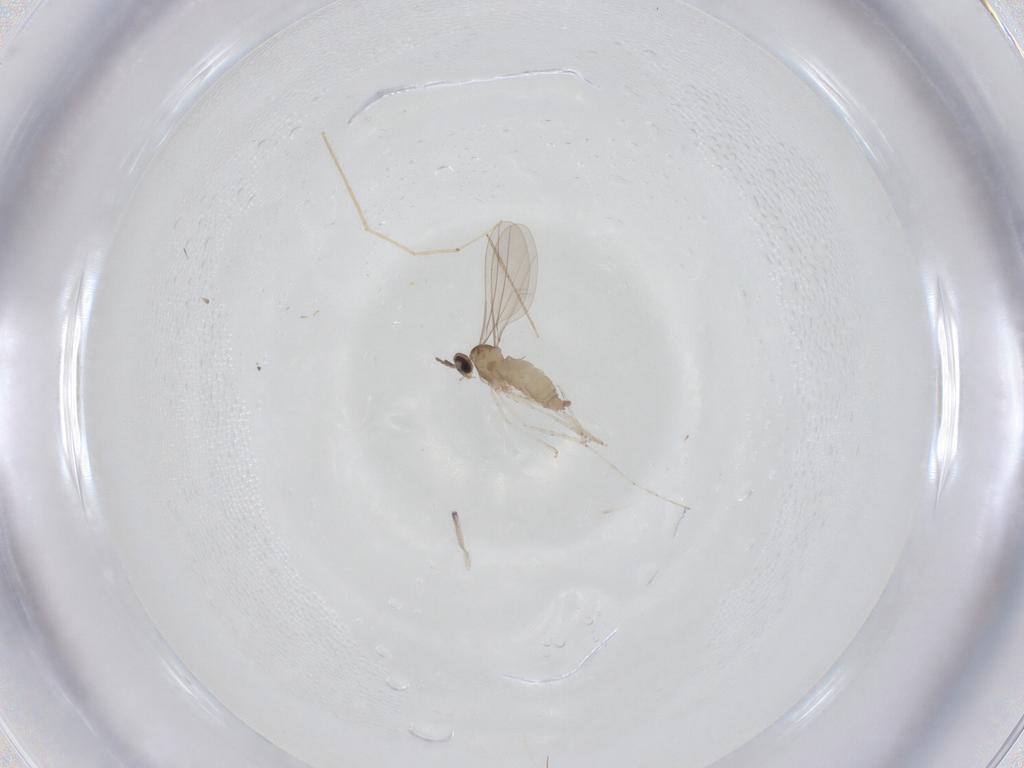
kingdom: Animalia
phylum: Arthropoda
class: Insecta
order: Diptera
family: Cecidomyiidae
